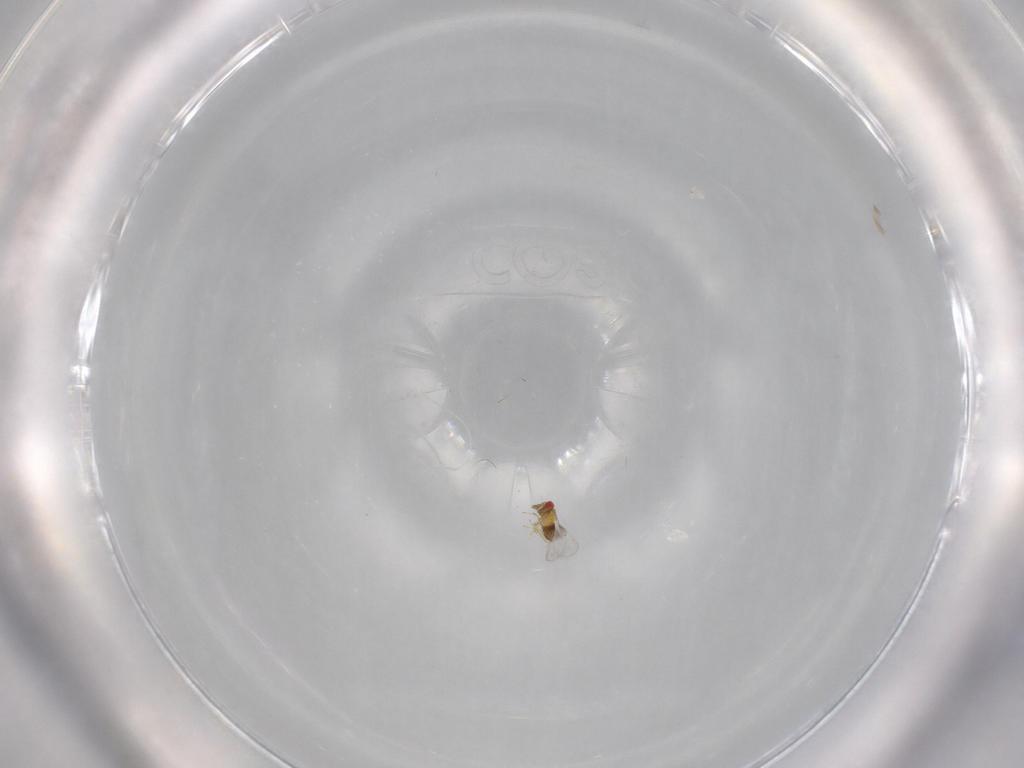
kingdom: Animalia
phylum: Arthropoda
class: Insecta
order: Hymenoptera
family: Trichogrammatidae
